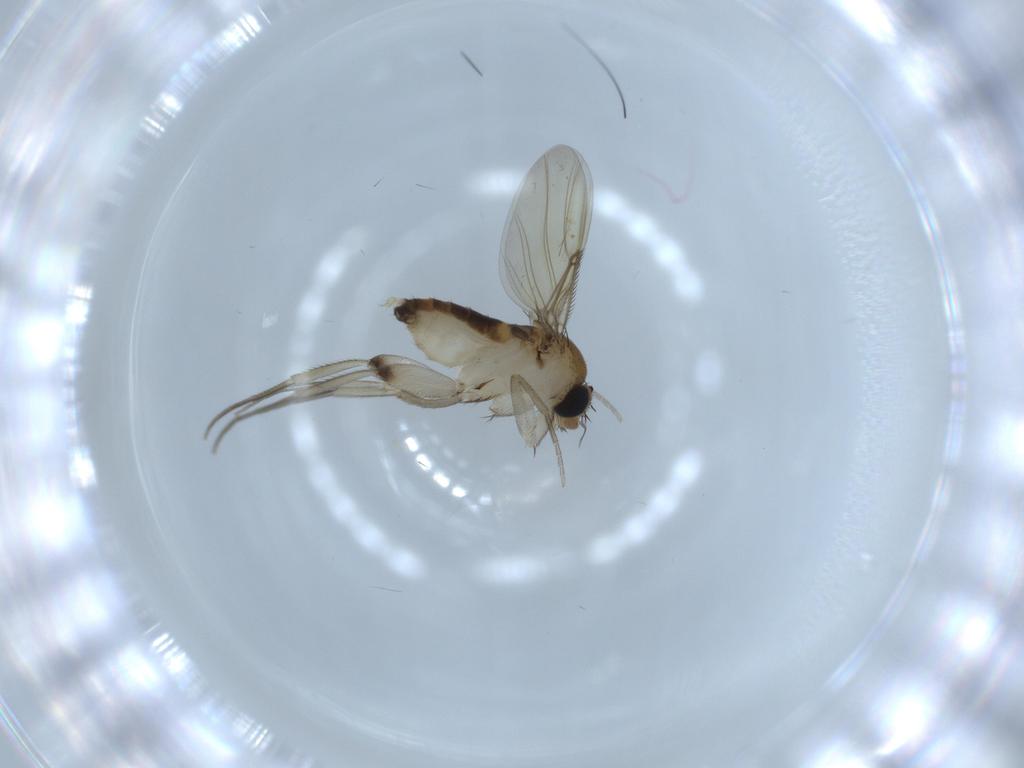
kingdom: Animalia
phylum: Arthropoda
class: Insecta
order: Diptera
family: Phoridae
